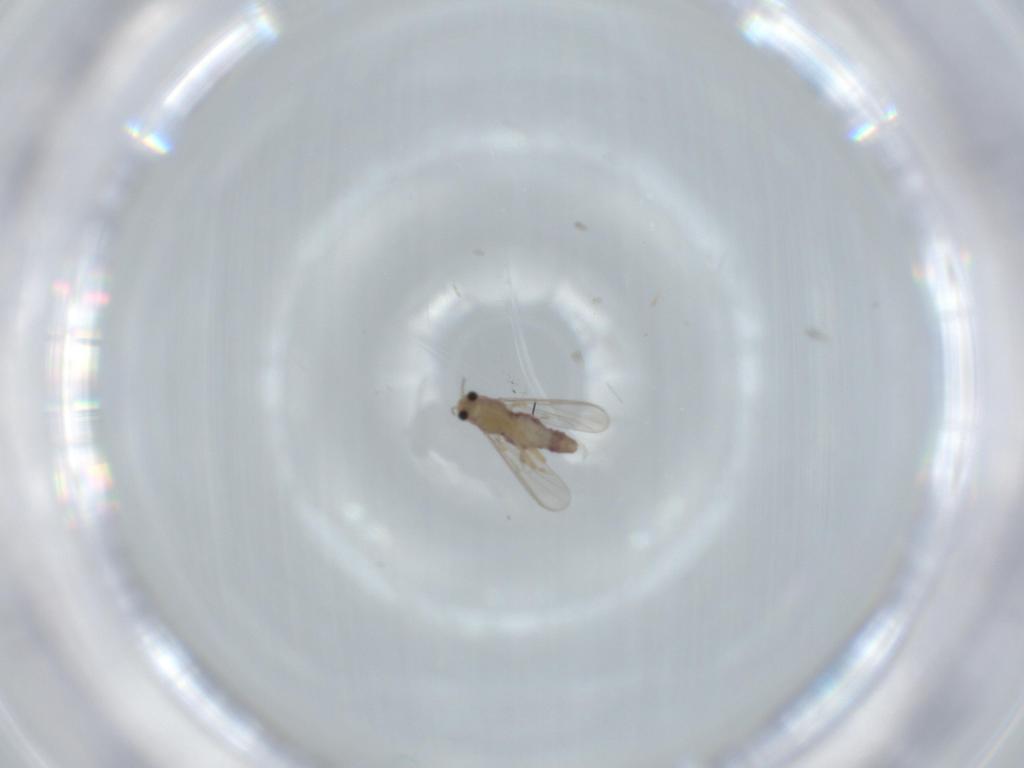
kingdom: Animalia
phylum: Arthropoda
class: Insecta
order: Diptera
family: Chironomidae
